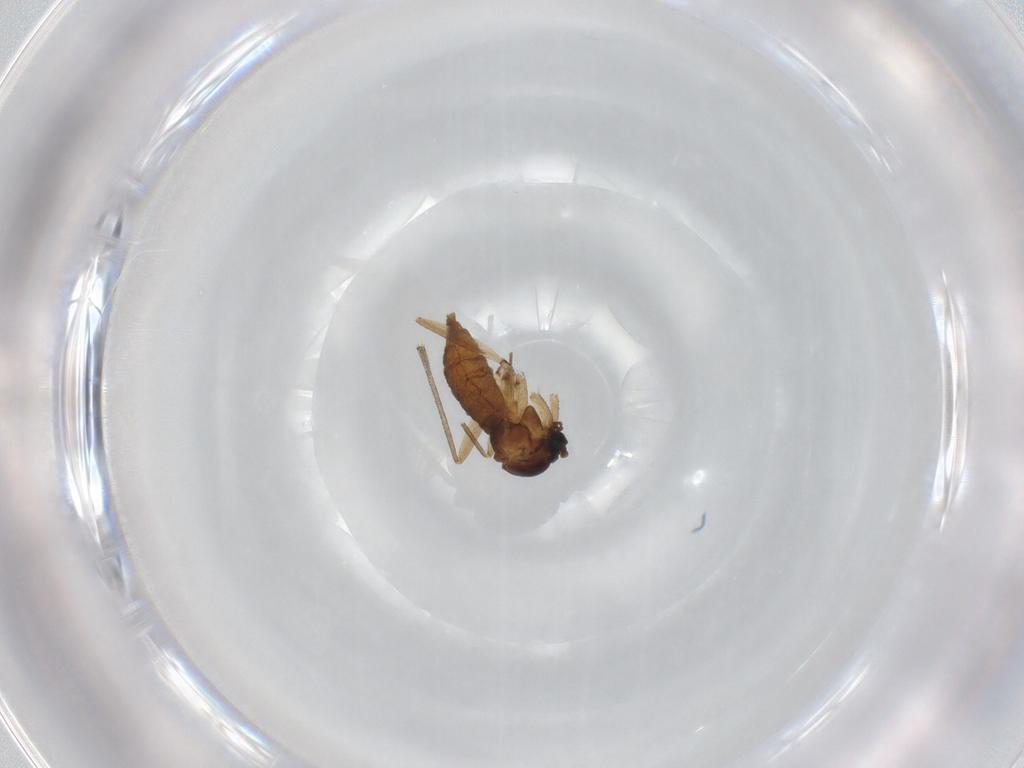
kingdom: Animalia
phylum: Arthropoda
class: Insecta
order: Diptera
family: Sciaridae
